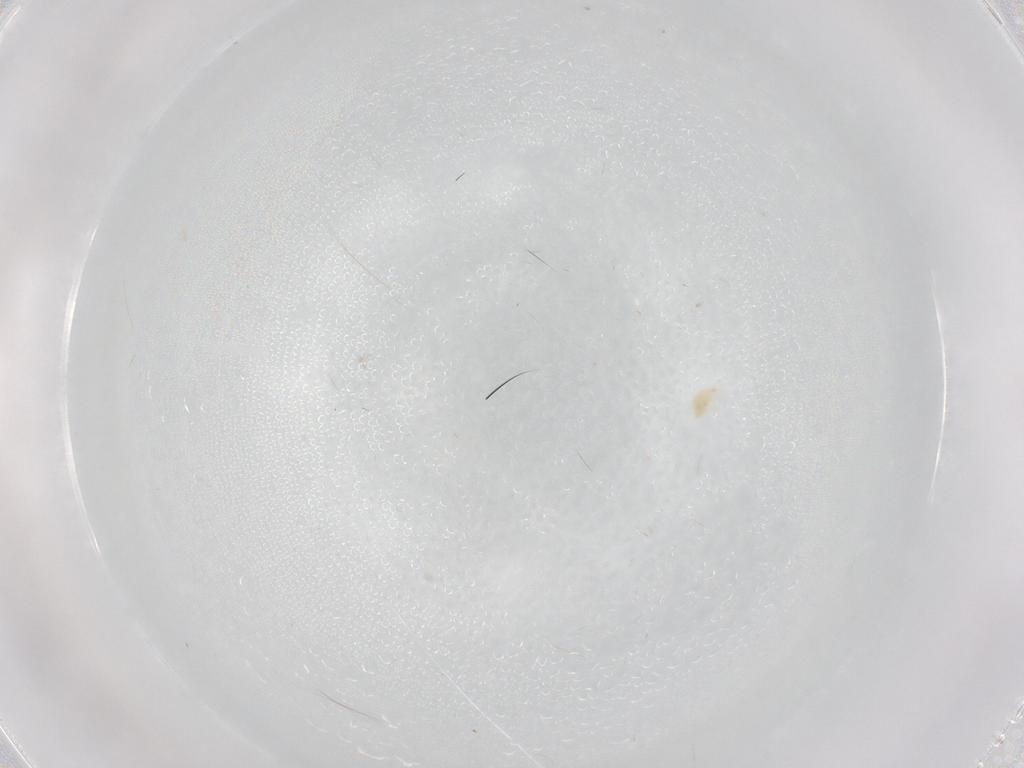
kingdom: Animalia
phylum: Arthropoda
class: Arachnida
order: Trombidiformes
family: Tetranychidae
